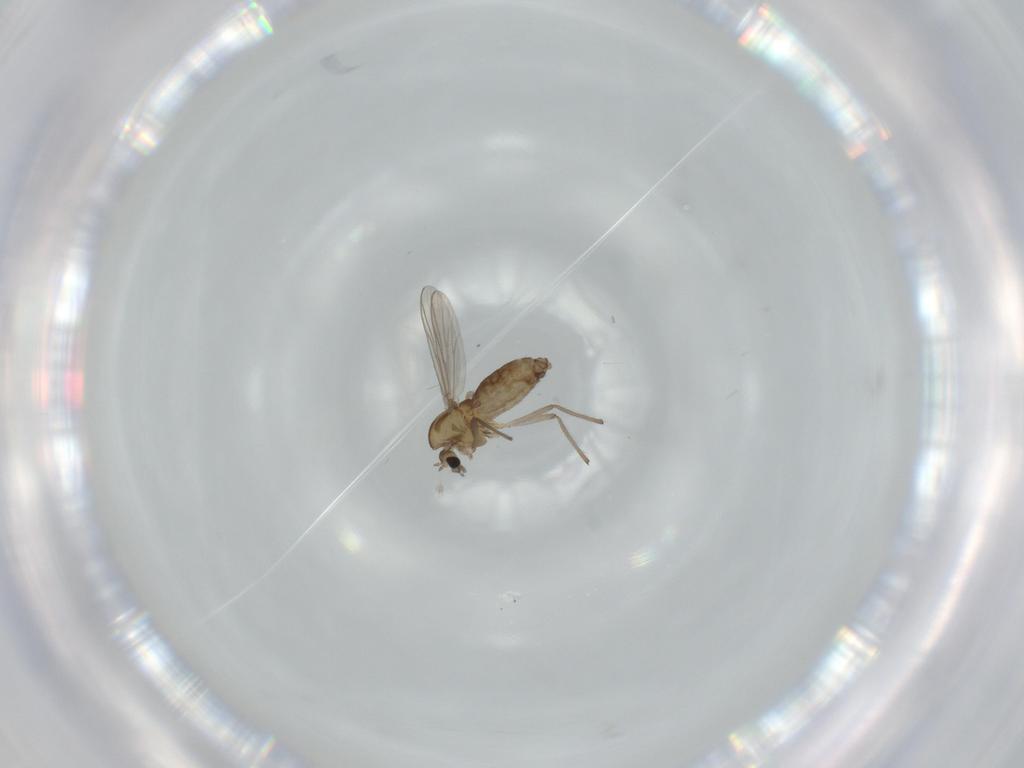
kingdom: Animalia
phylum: Arthropoda
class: Insecta
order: Diptera
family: Chironomidae
